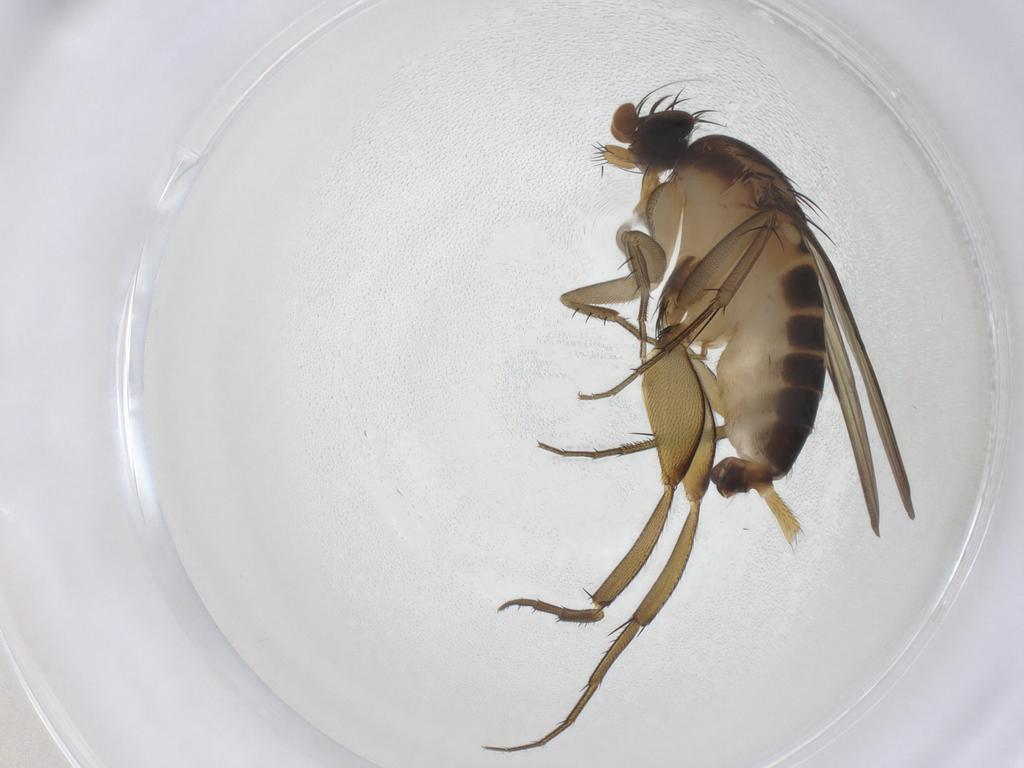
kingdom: Animalia
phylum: Arthropoda
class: Insecta
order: Diptera
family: Phoridae
